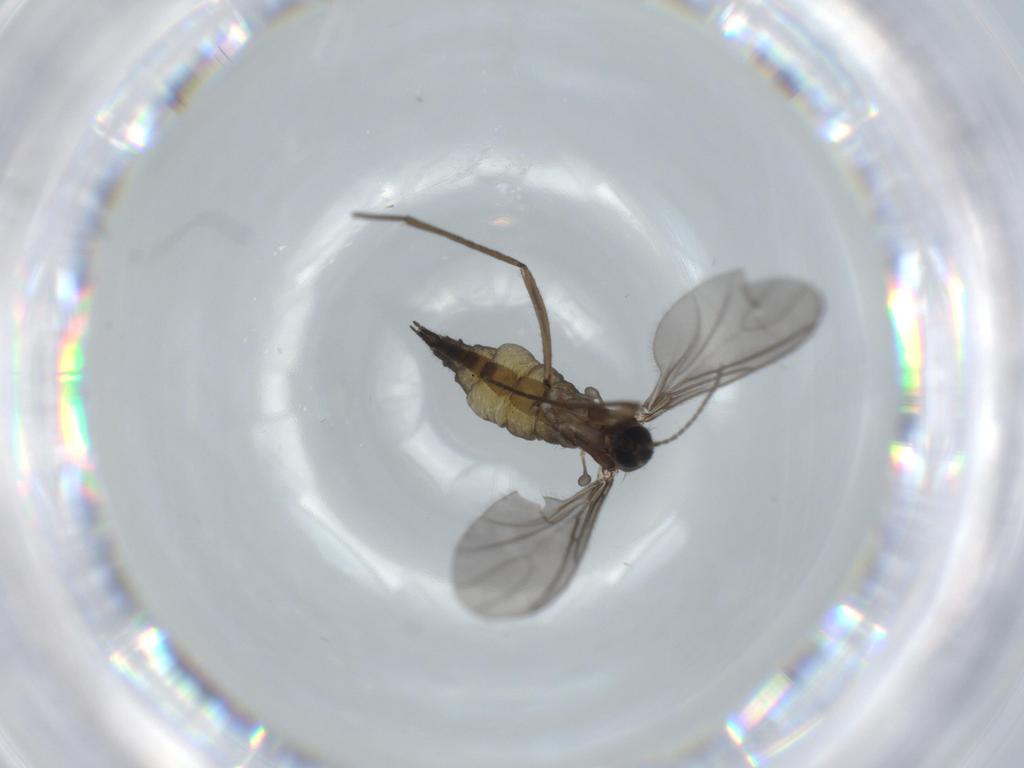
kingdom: Animalia
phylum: Arthropoda
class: Insecta
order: Diptera
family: Sciaridae
